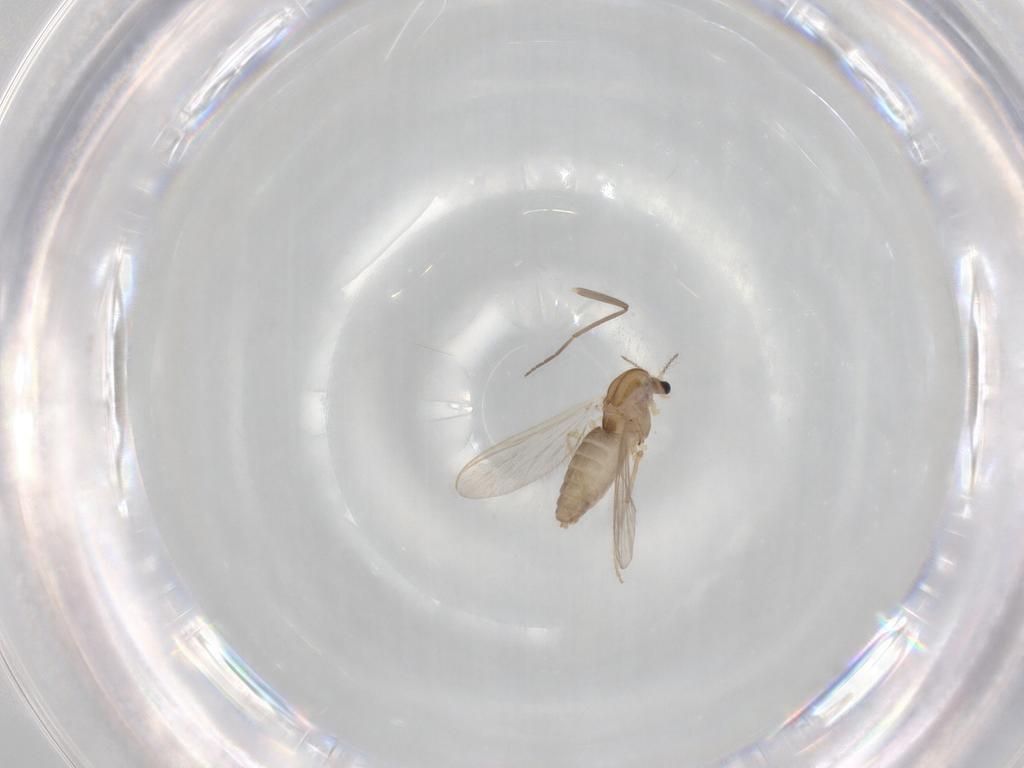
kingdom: Animalia
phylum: Arthropoda
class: Insecta
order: Diptera
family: Chironomidae
